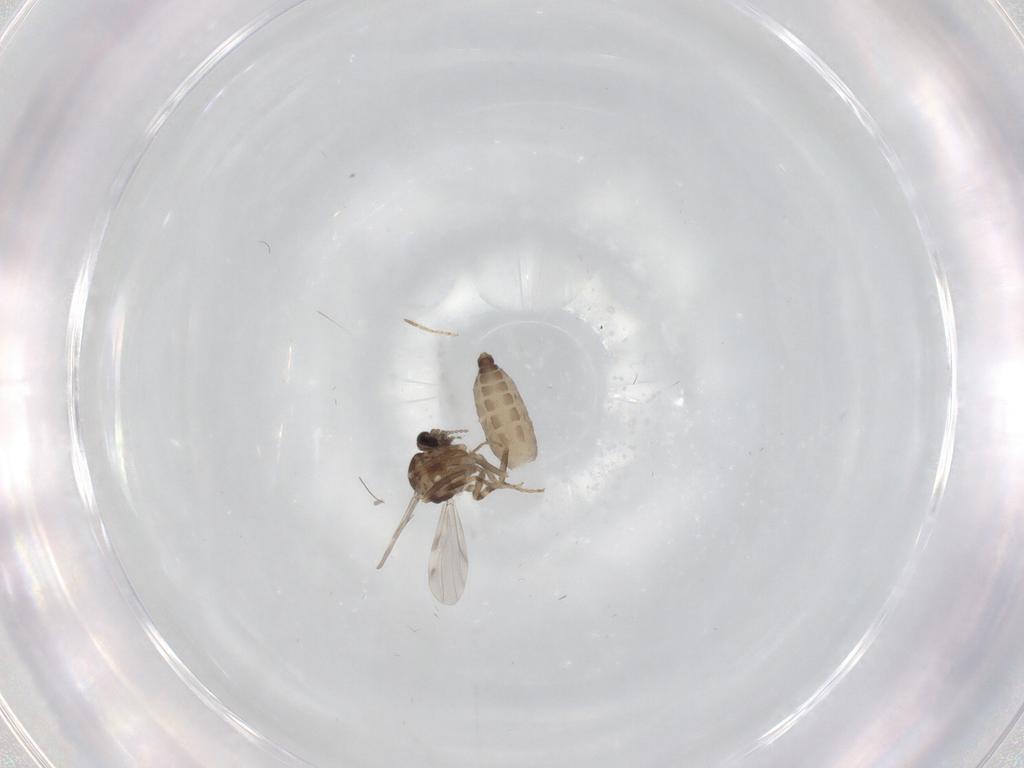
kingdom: Animalia
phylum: Arthropoda
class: Insecta
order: Diptera
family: Ceratopogonidae
